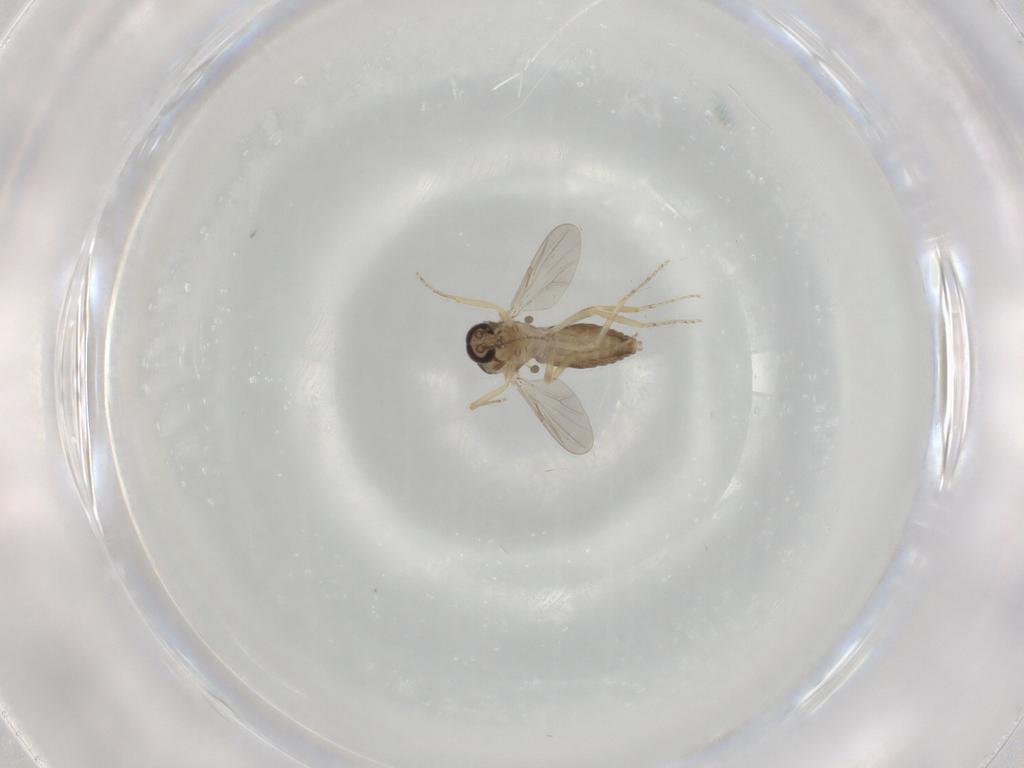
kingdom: Animalia
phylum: Arthropoda
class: Insecta
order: Diptera
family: Ceratopogonidae
